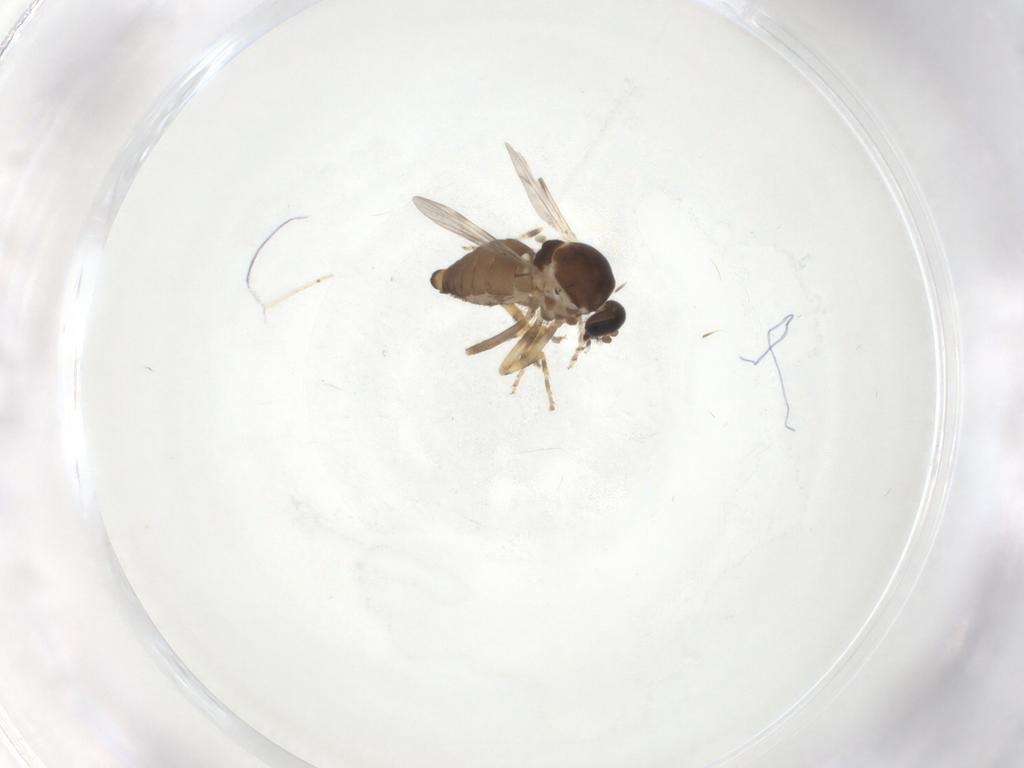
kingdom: Animalia
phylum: Arthropoda
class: Insecta
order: Diptera
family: Ceratopogonidae
